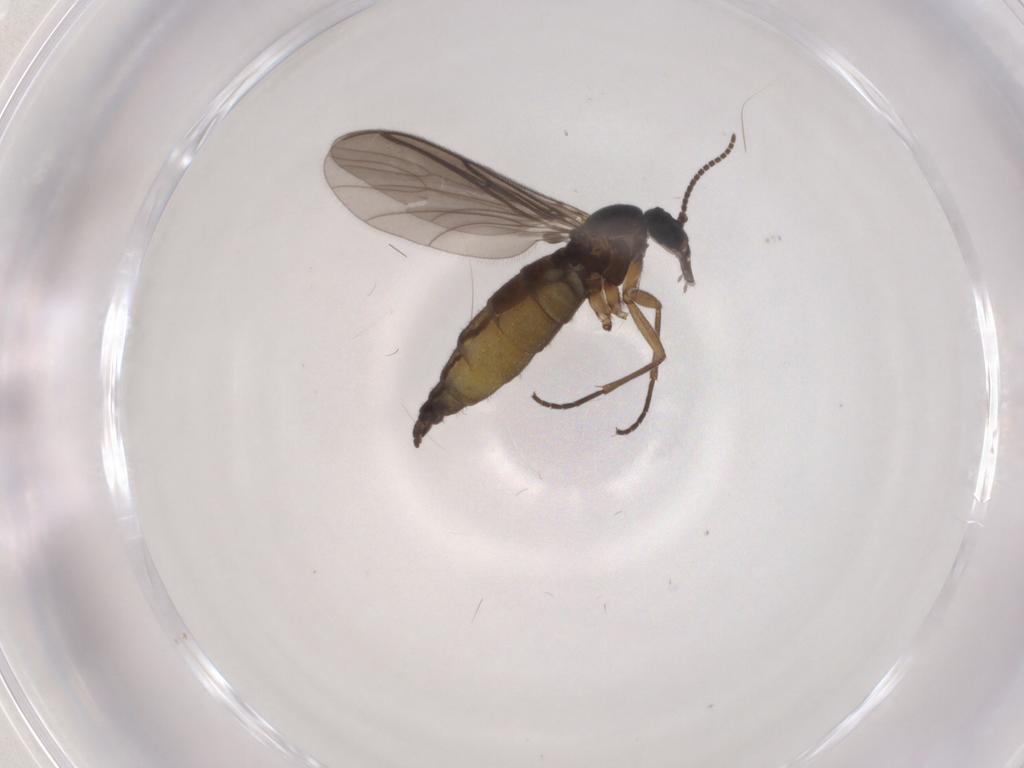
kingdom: Animalia
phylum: Arthropoda
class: Insecta
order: Diptera
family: Sciaridae
